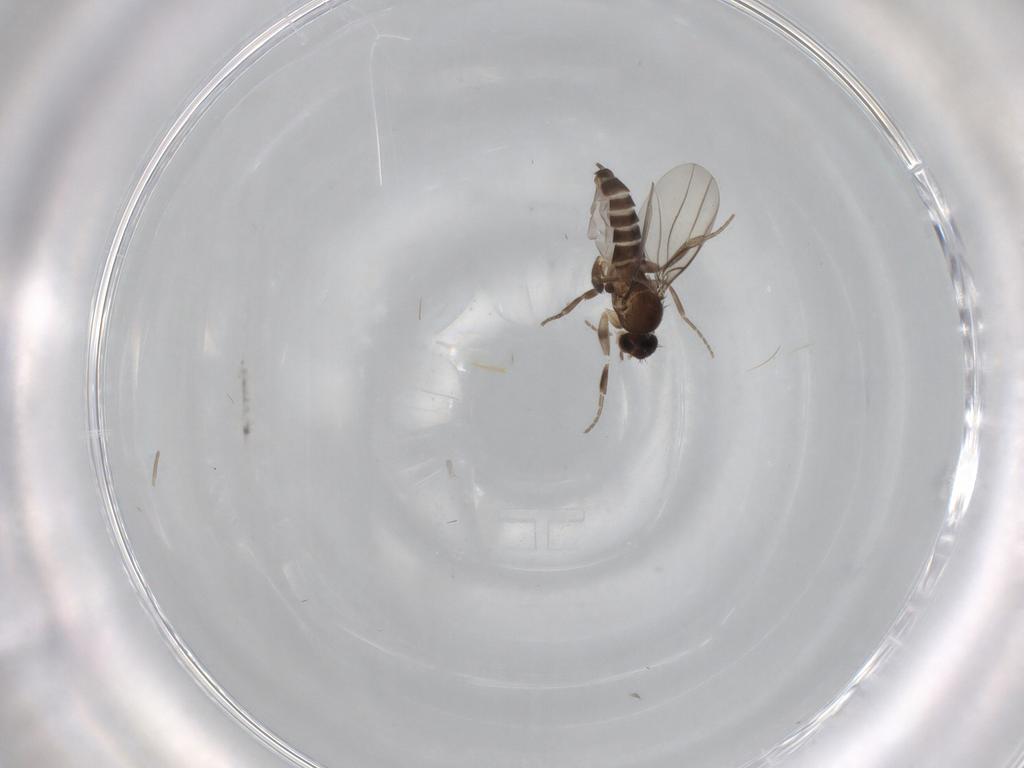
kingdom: Animalia
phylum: Arthropoda
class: Insecta
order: Diptera
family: Phoridae
